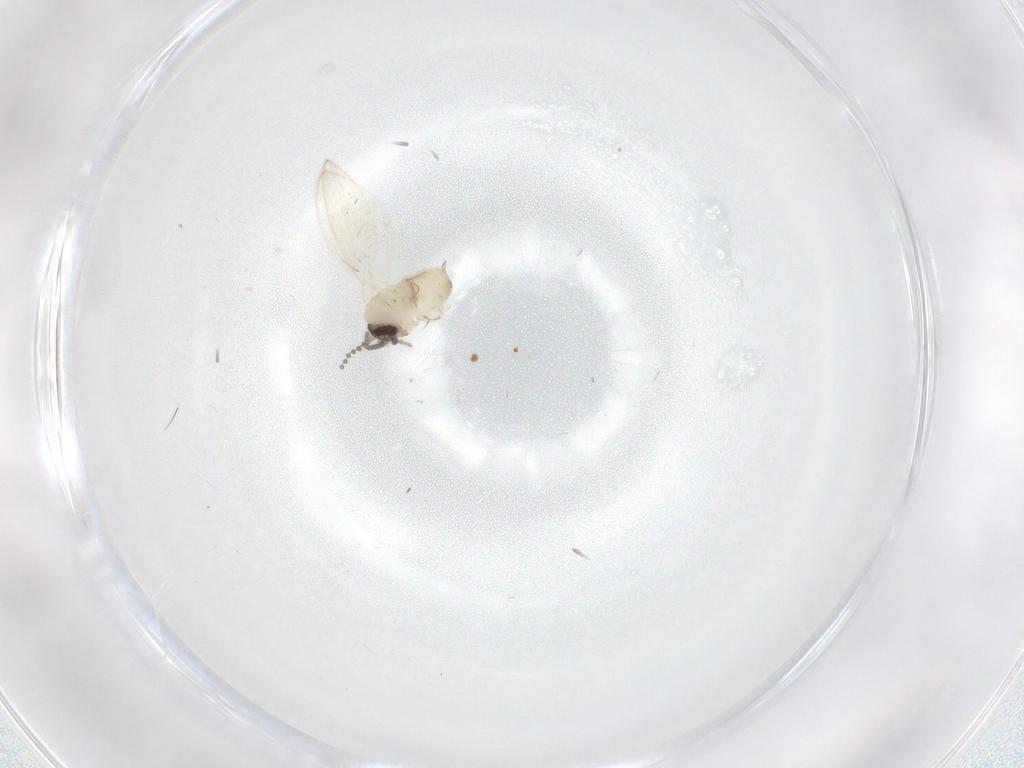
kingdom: Animalia
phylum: Arthropoda
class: Insecta
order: Diptera
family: Psychodidae
